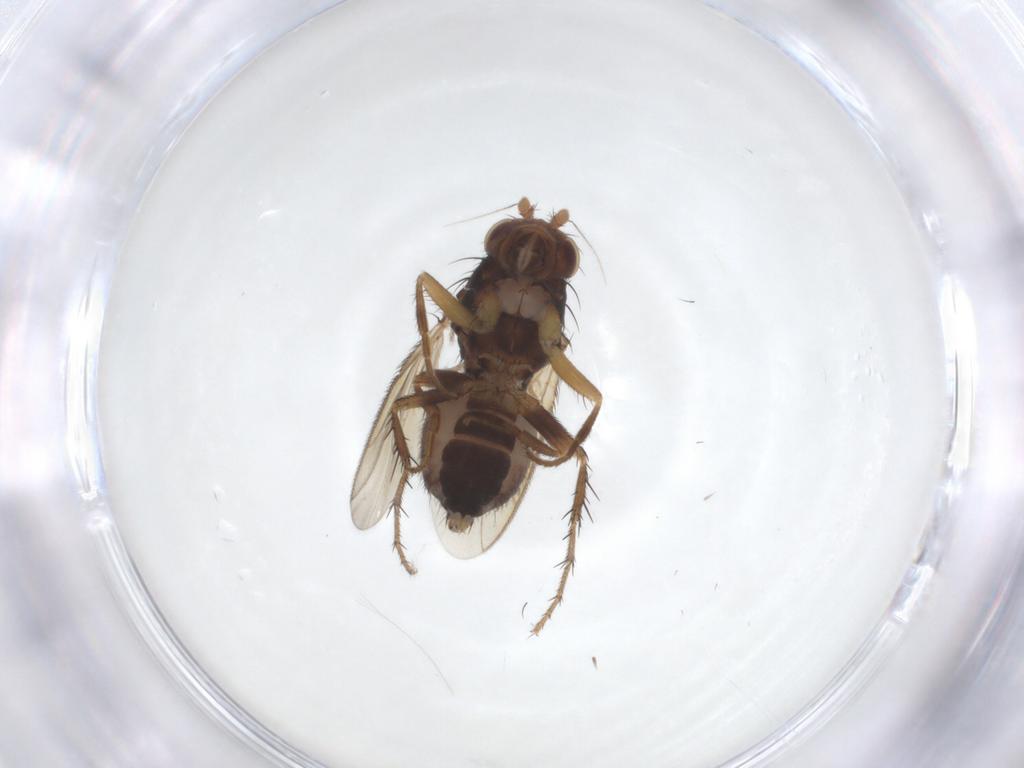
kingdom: Animalia
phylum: Arthropoda
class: Insecta
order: Diptera
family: Sphaeroceridae
